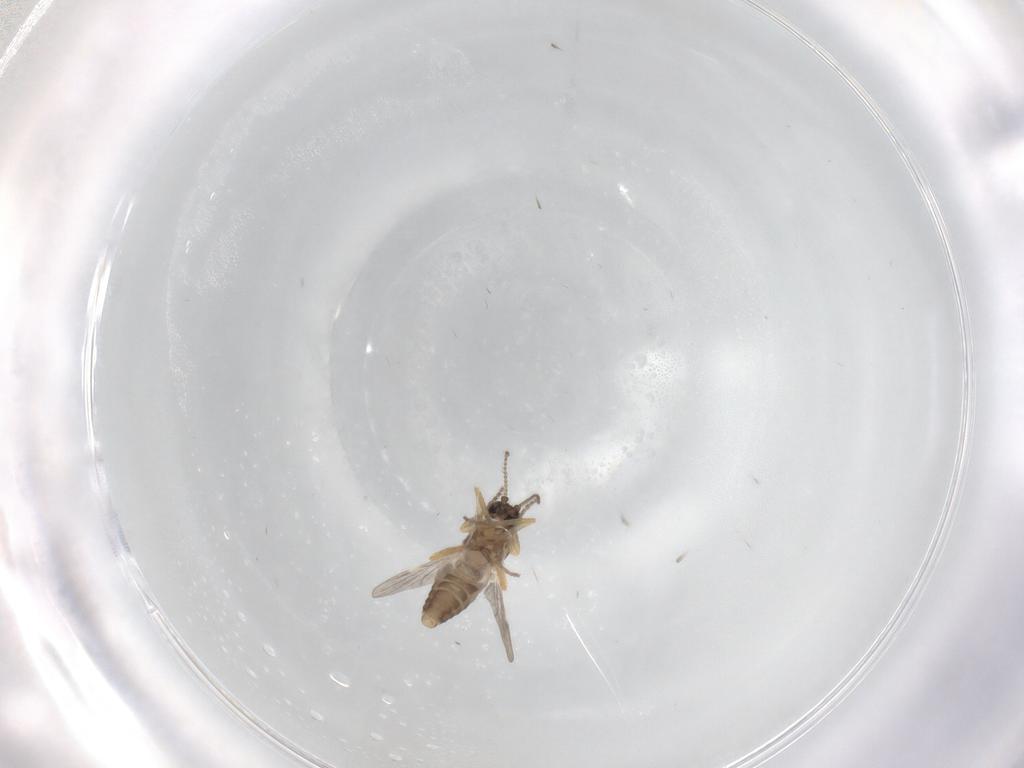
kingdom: Animalia
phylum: Arthropoda
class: Insecta
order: Diptera
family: Ceratopogonidae
